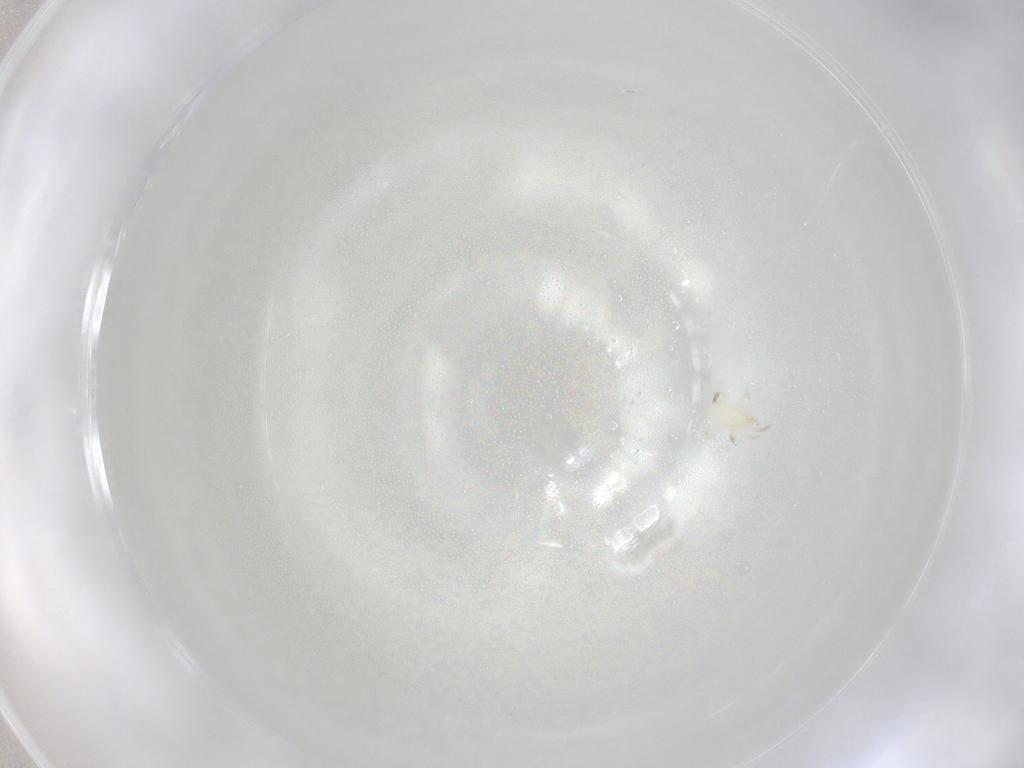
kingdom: Animalia
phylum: Arthropoda
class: Arachnida
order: Mesostigmata
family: Phytoseiidae
